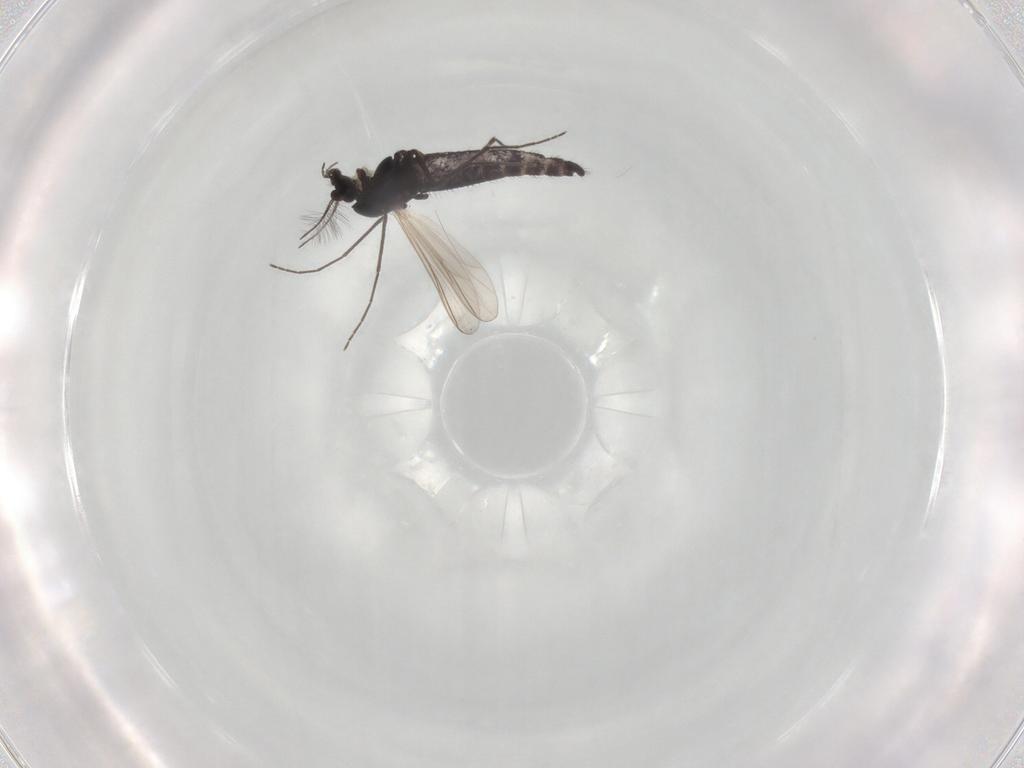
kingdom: Animalia
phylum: Arthropoda
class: Insecta
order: Diptera
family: Chironomidae
